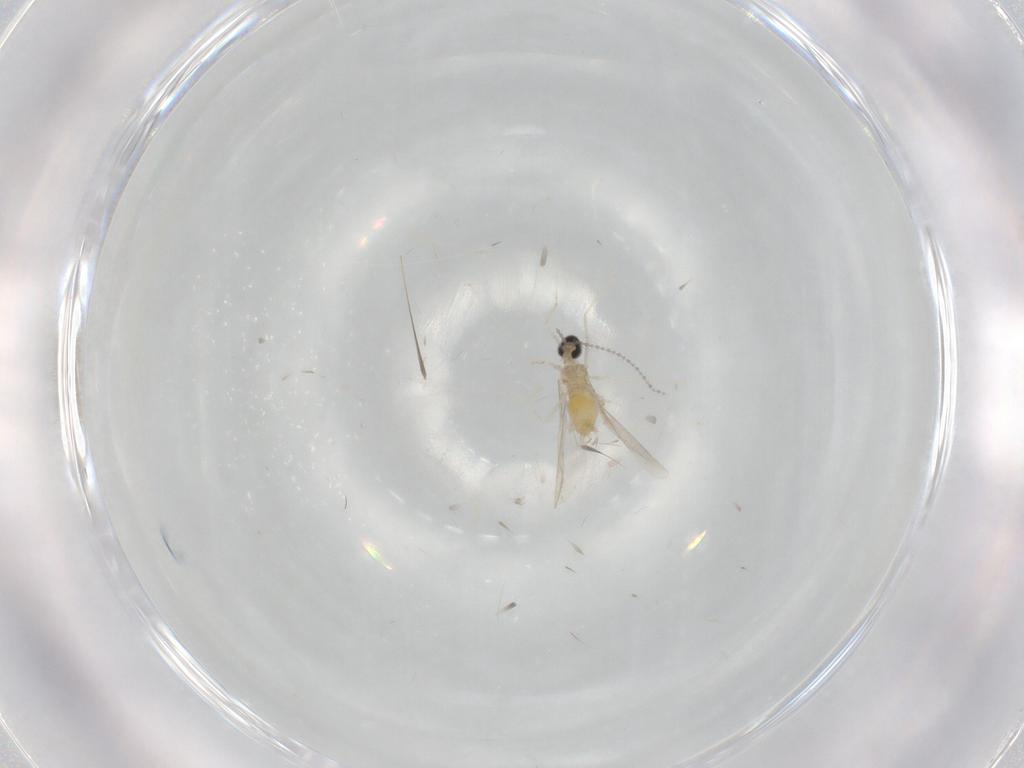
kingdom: Animalia
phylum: Arthropoda
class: Insecta
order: Diptera
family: Cecidomyiidae
